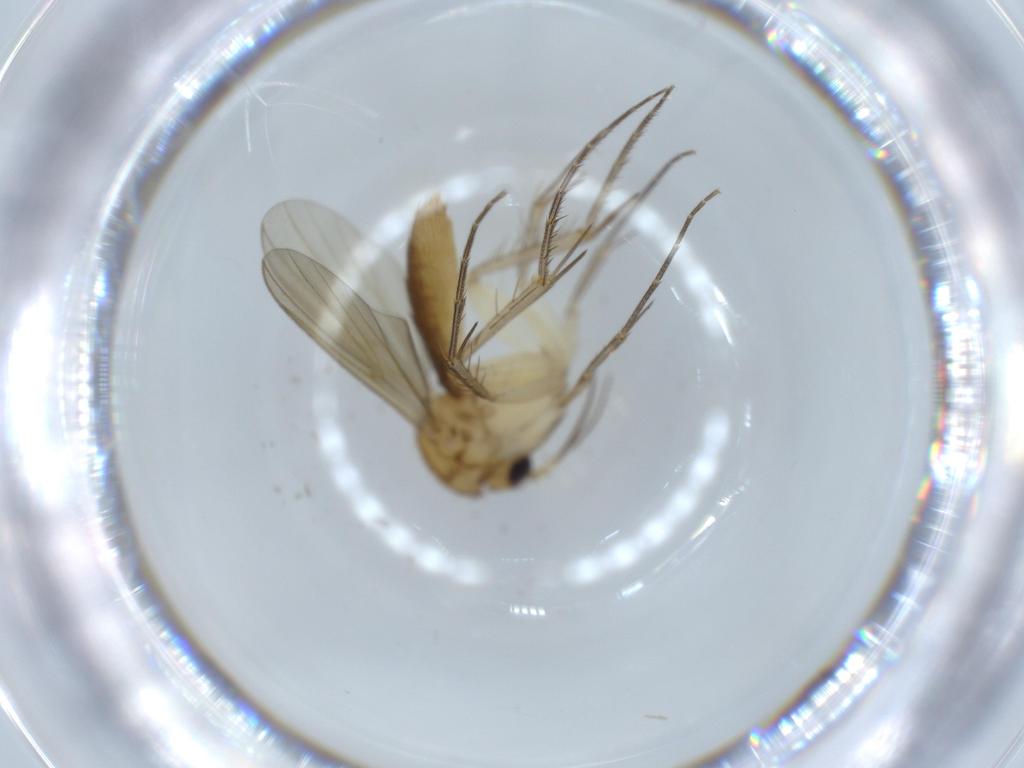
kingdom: Animalia
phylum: Arthropoda
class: Insecta
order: Diptera
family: Mycetophilidae
